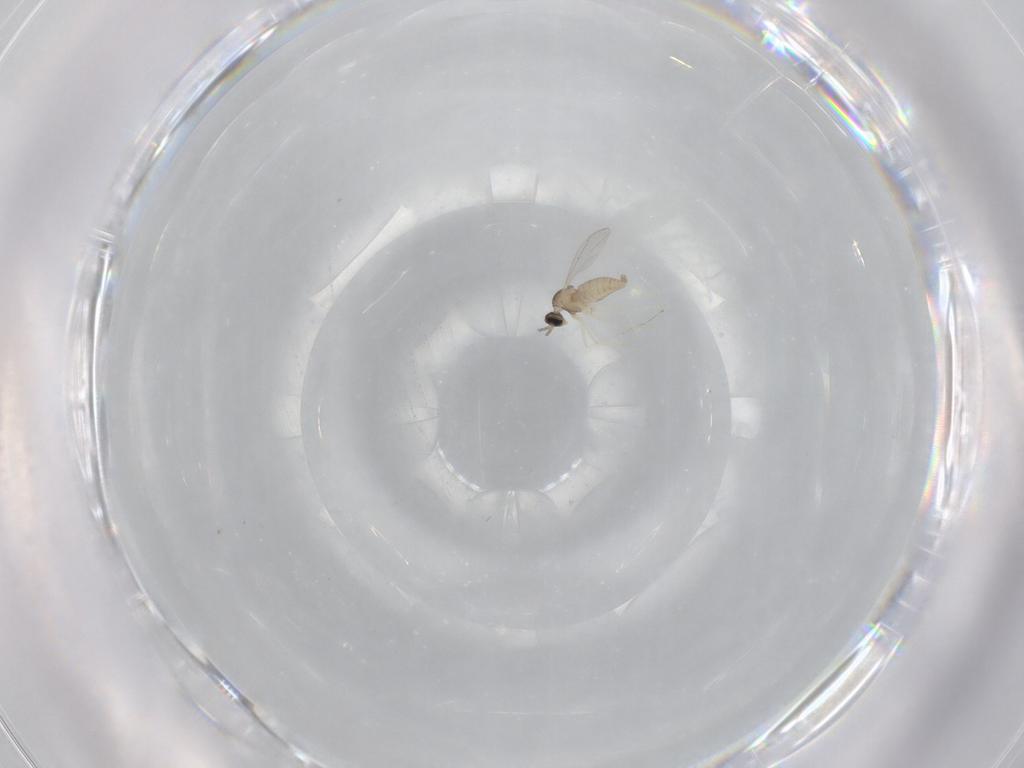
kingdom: Animalia
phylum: Arthropoda
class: Insecta
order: Diptera
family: Cecidomyiidae
